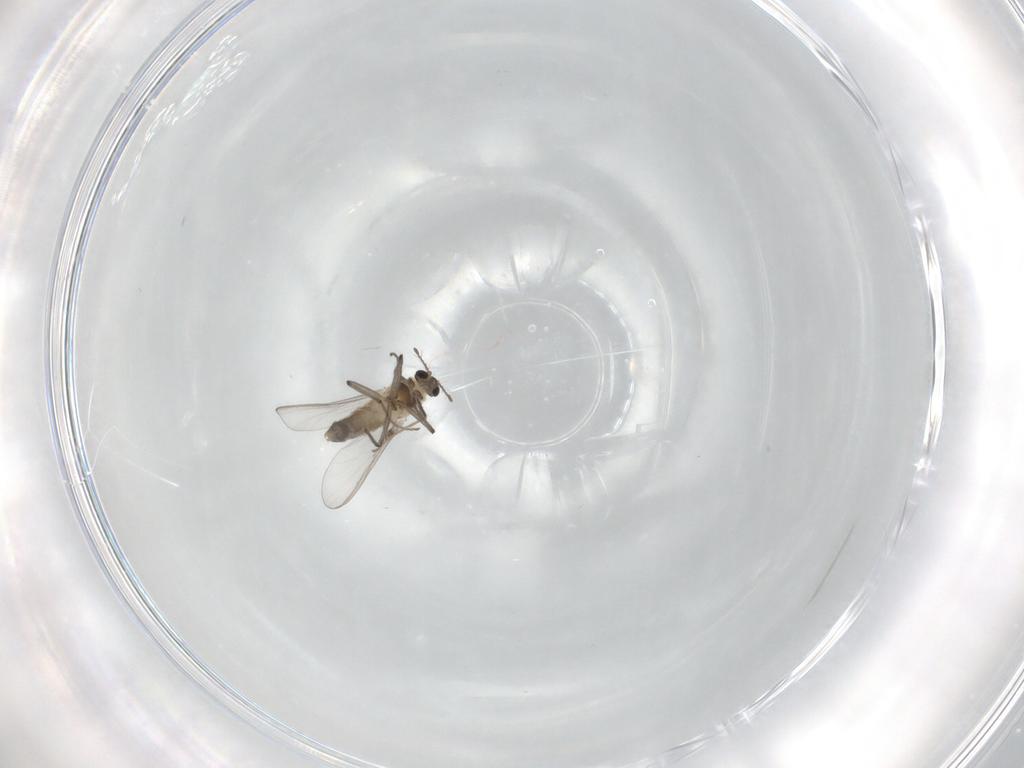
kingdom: Animalia
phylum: Arthropoda
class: Insecta
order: Diptera
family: Chironomidae
